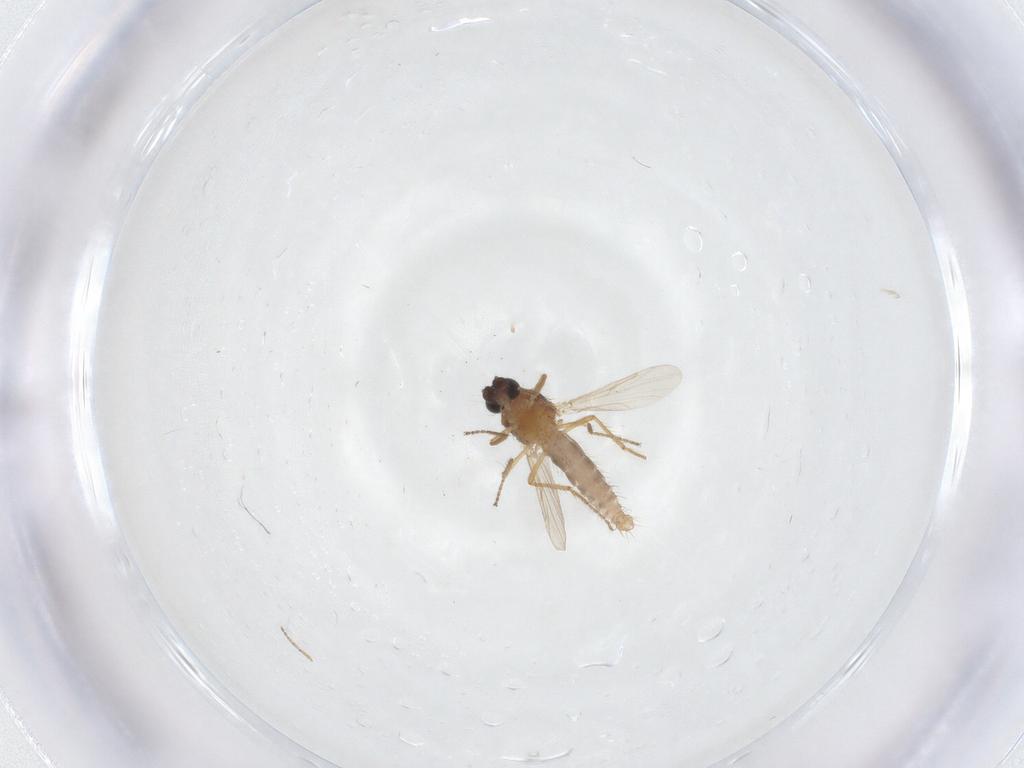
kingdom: Animalia
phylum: Arthropoda
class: Insecta
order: Diptera
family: Ceratopogonidae
